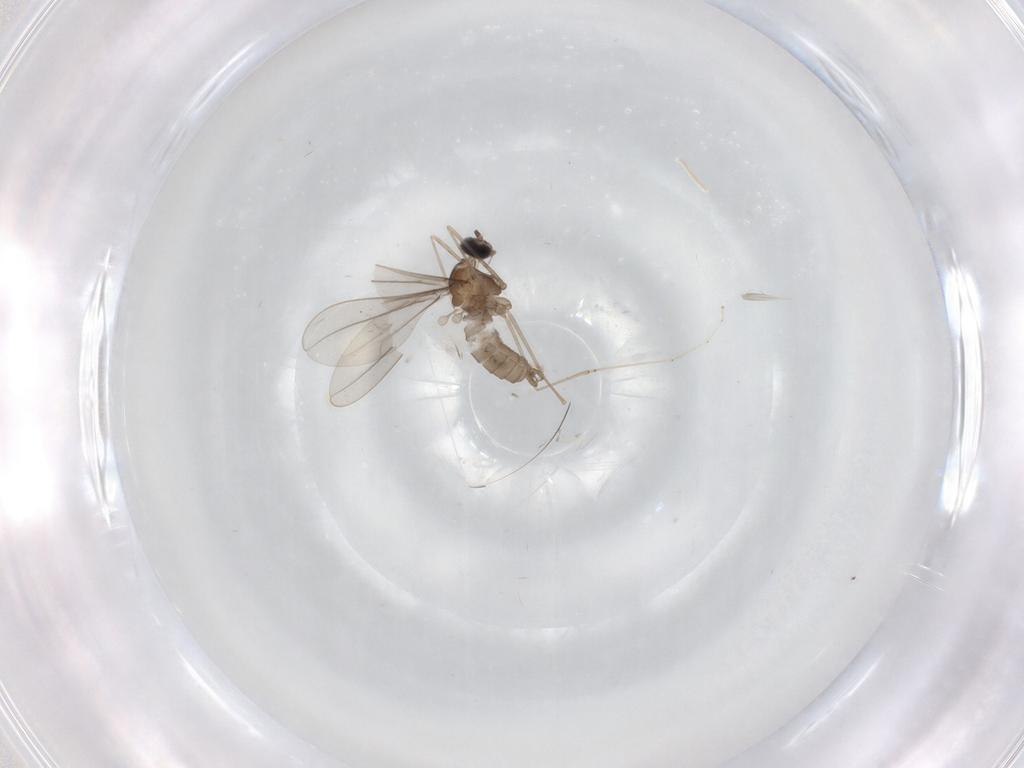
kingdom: Animalia
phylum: Arthropoda
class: Insecta
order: Diptera
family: Cecidomyiidae
